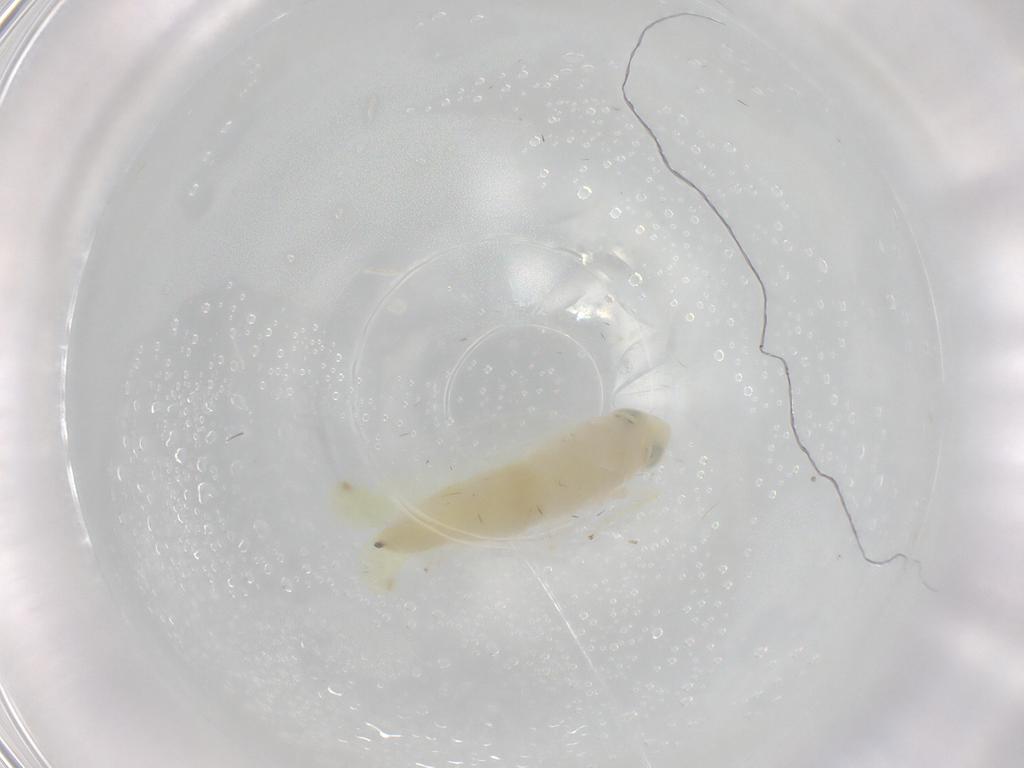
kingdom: Animalia
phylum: Arthropoda
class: Insecta
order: Hemiptera
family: Cicadellidae
